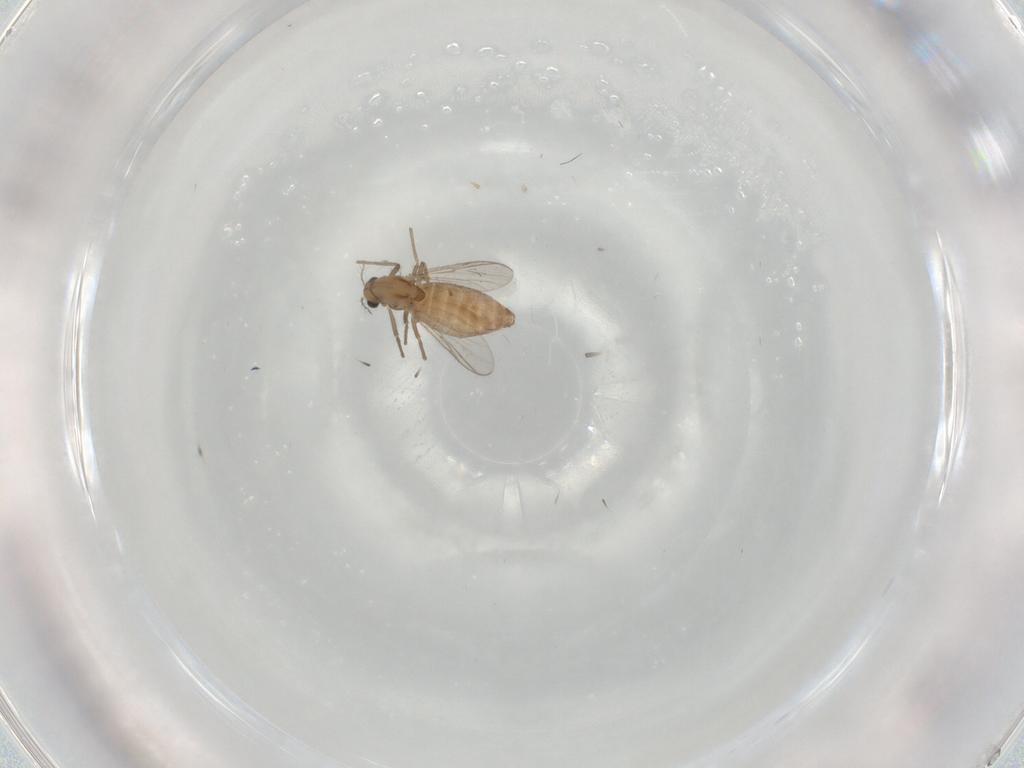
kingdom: Animalia
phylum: Arthropoda
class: Insecta
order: Diptera
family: Chironomidae
